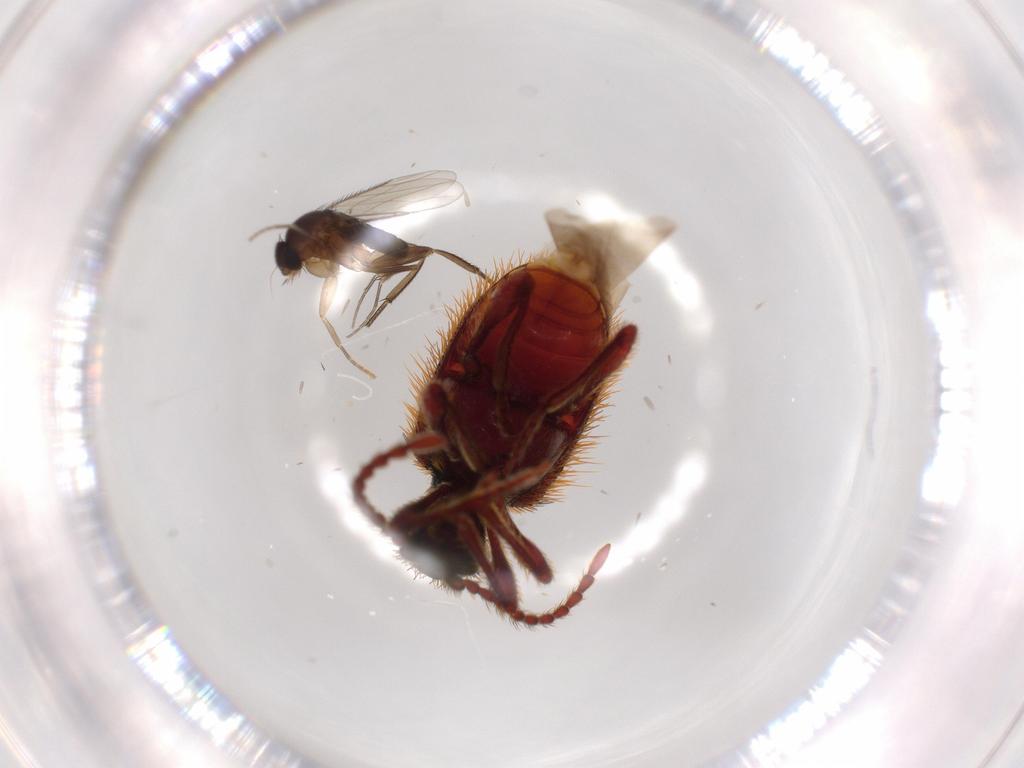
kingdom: Animalia
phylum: Arthropoda
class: Insecta
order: Diptera
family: Phoridae
